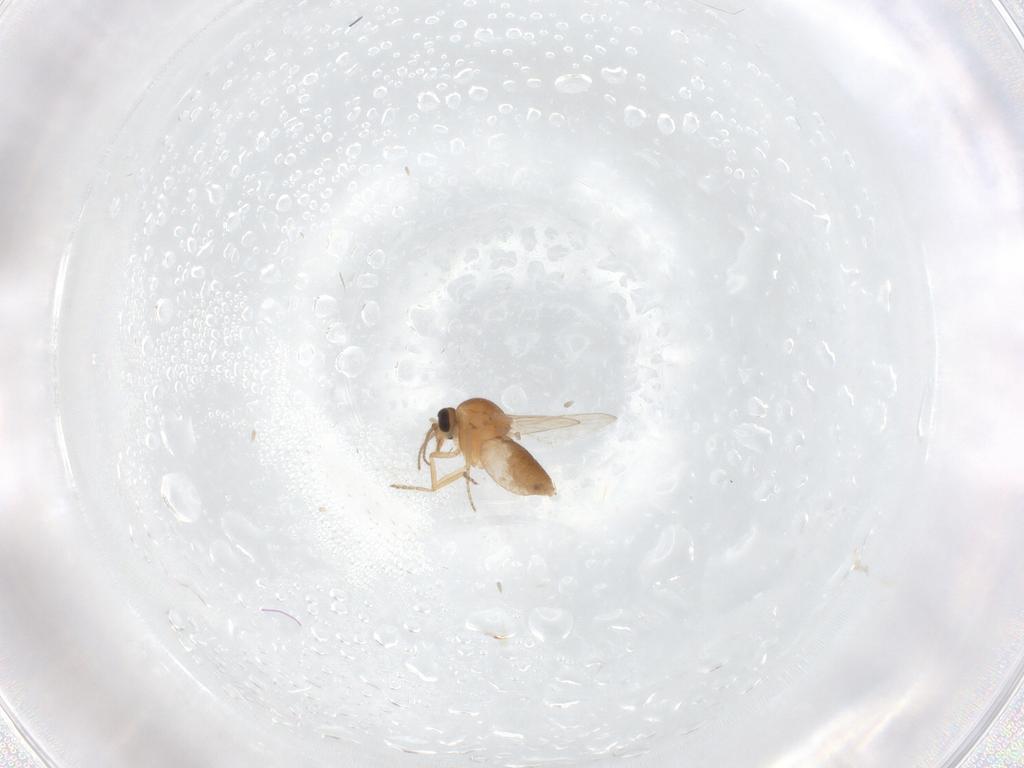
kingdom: Animalia
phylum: Arthropoda
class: Insecta
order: Diptera
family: Ceratopogonidae
